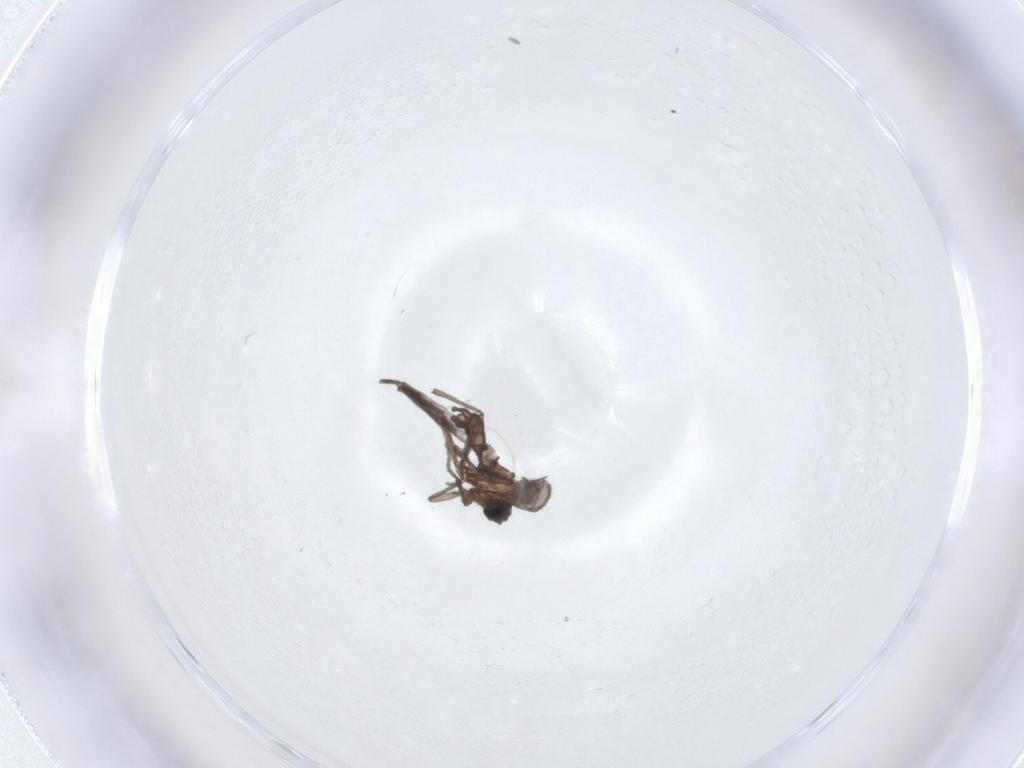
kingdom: Animalia
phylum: Arthropoda
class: Insecta
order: Diptera
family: Sciaridae
